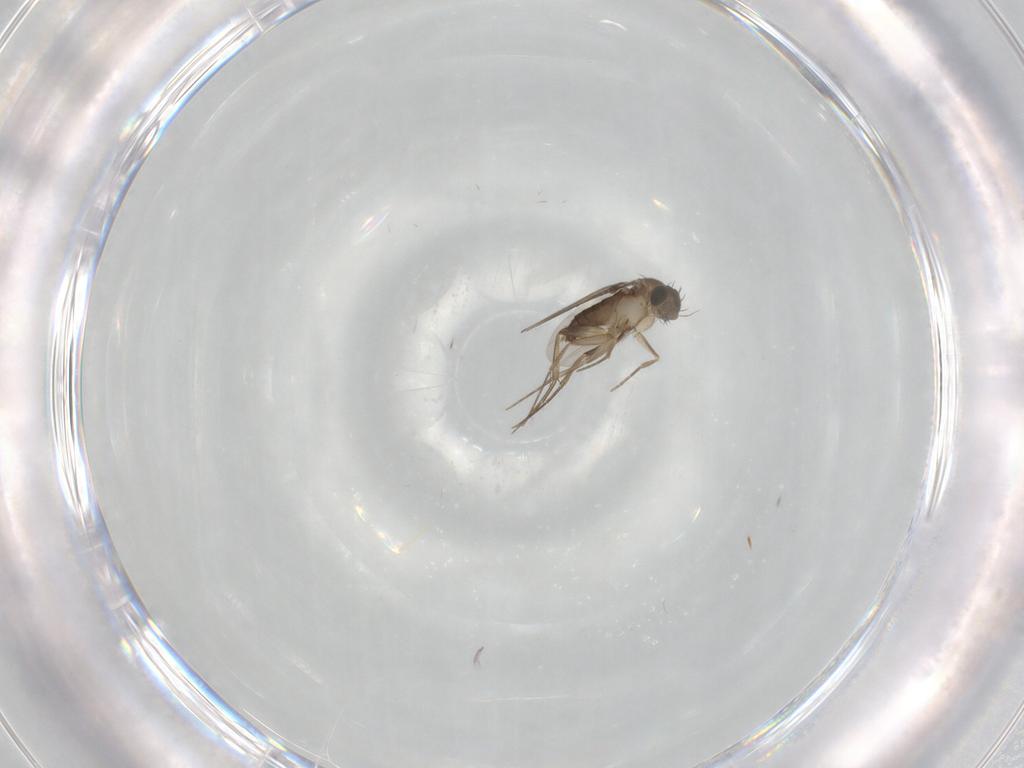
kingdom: Animalia
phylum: Arthropoda
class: Insecta
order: Diptera
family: Phoridae
